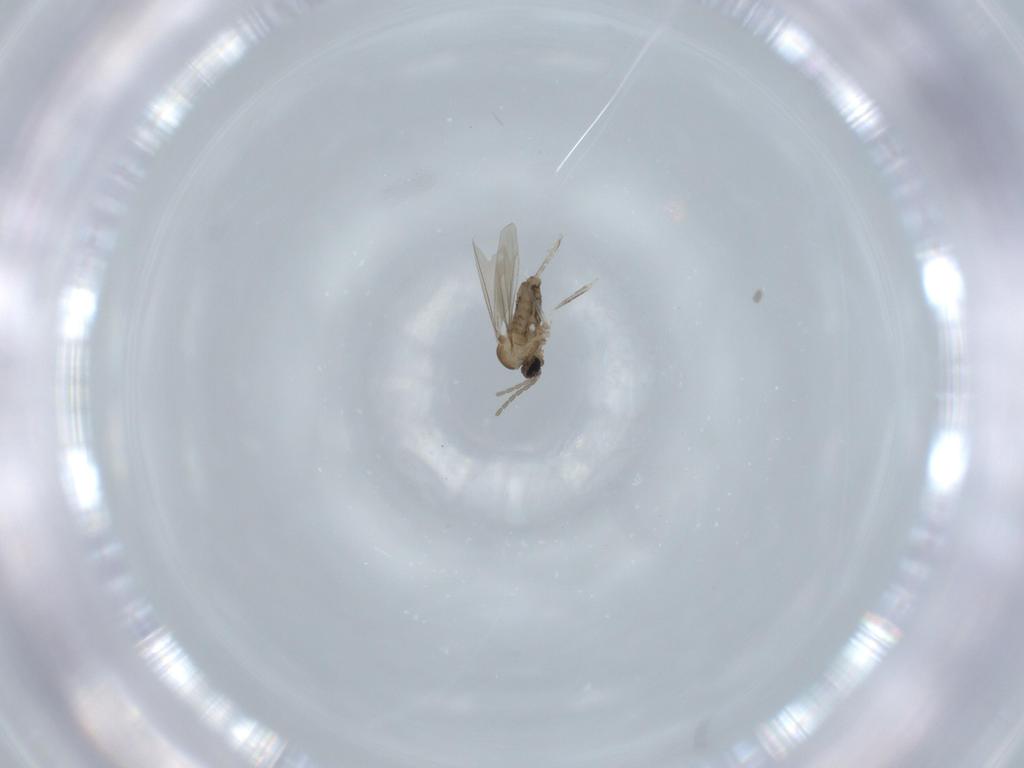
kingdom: Animalia
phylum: Arthropoda
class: Insecta
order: Diptera
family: Cecidomyiidae
